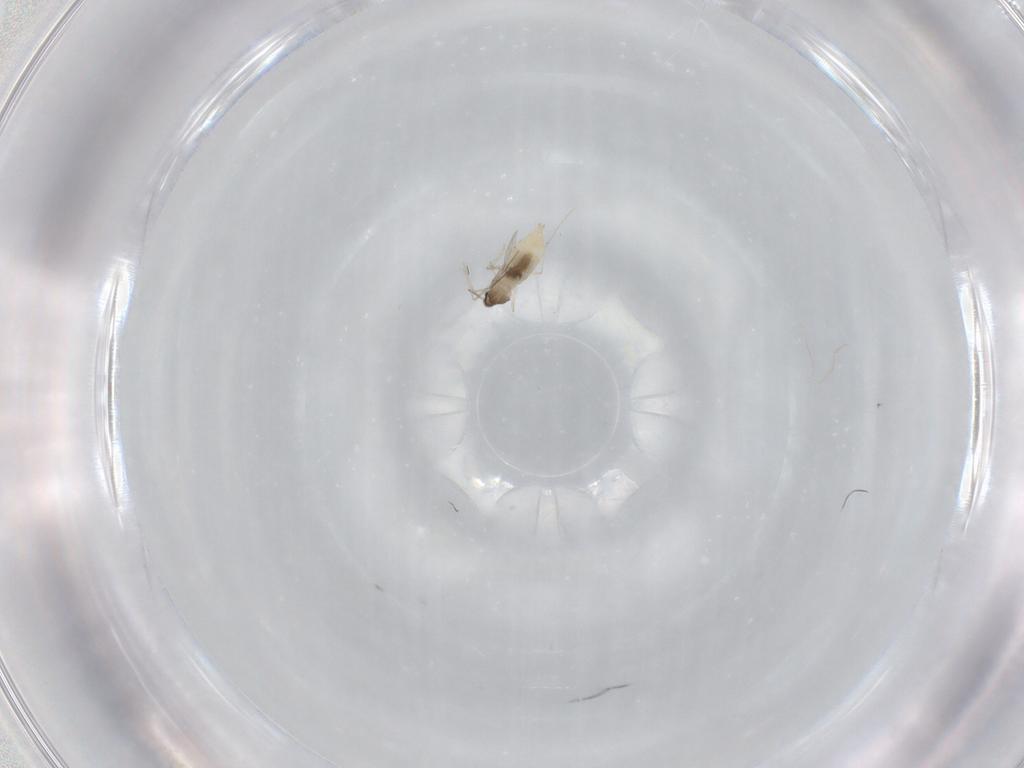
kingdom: Animalia
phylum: Arthropoda
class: Insecta
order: Diptera
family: Cecidomyiidae
